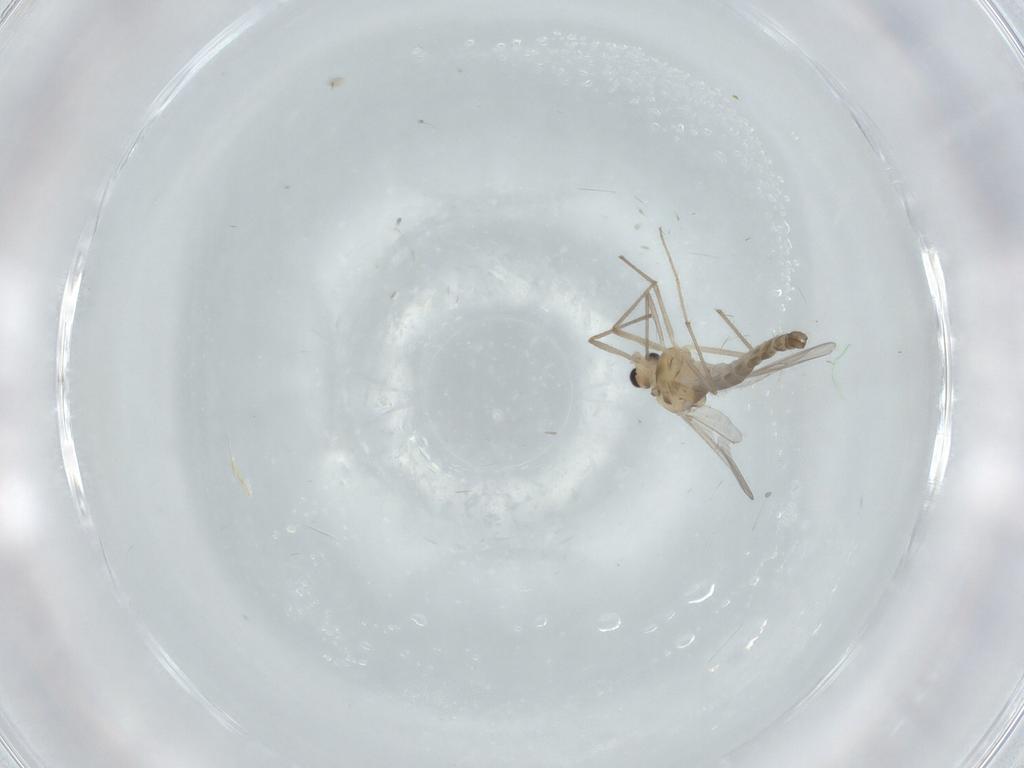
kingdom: Animalia
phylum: Arthropoda
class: Insecta
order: Diptera
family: Chironomidae
